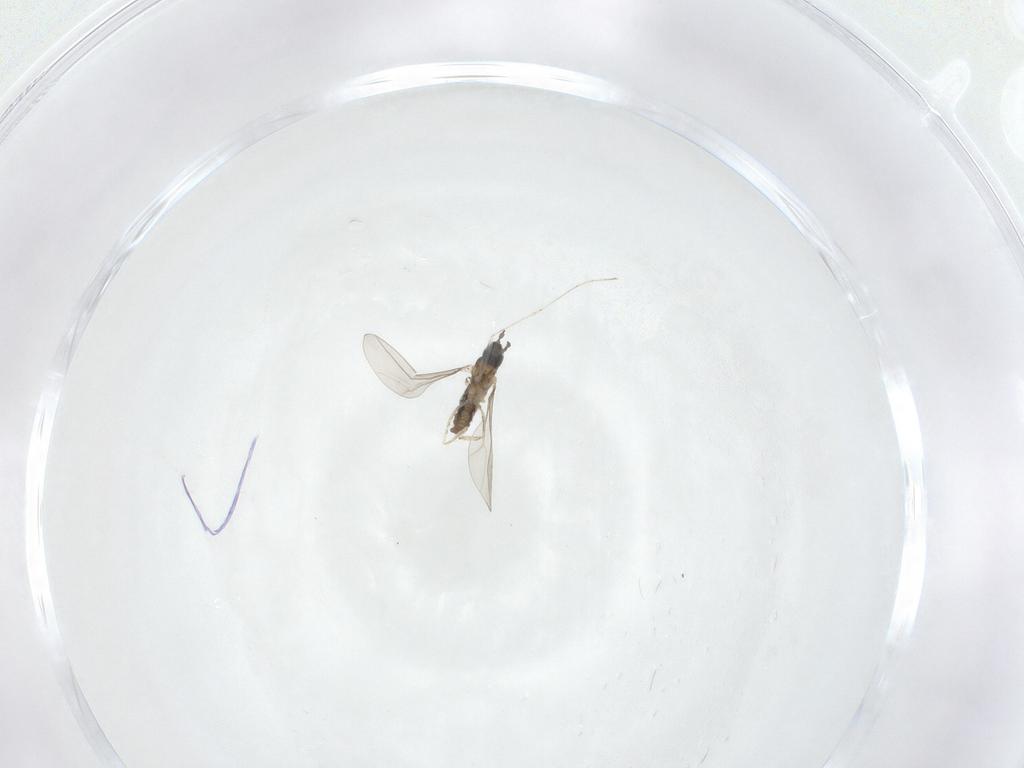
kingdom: Animalia
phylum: Arthropoda
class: Insecta
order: Diptera
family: Cecidomyiidae
